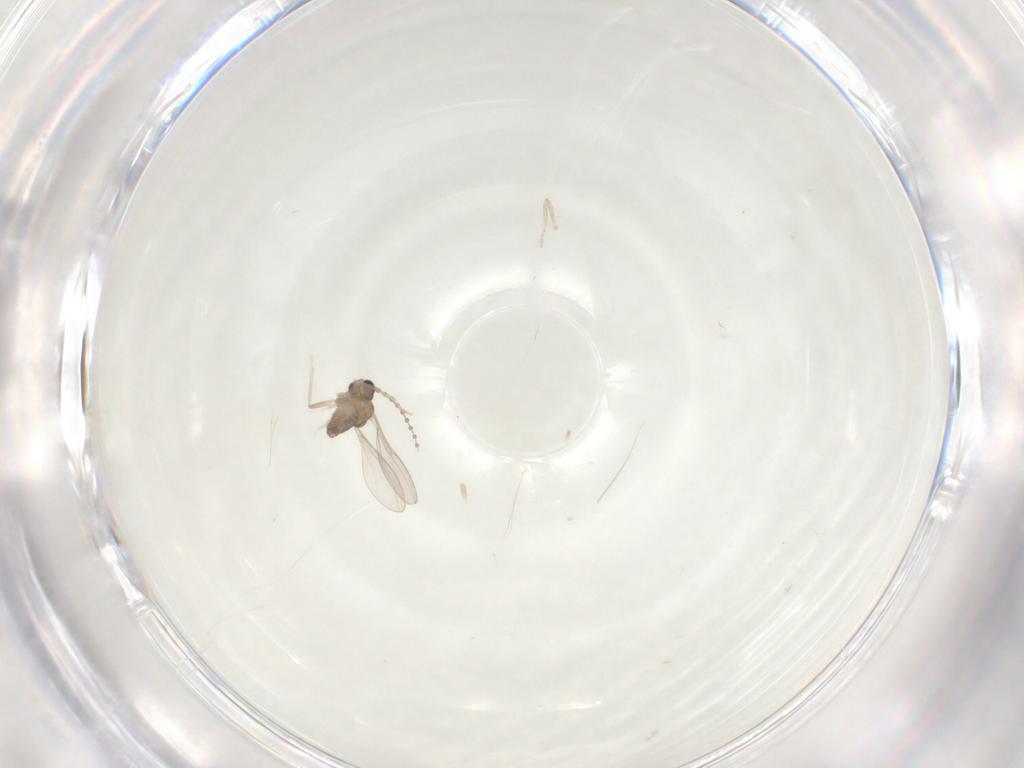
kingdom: Animalia
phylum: Arthropoda
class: Insecta
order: Diptera
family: Cecidomyiidae
